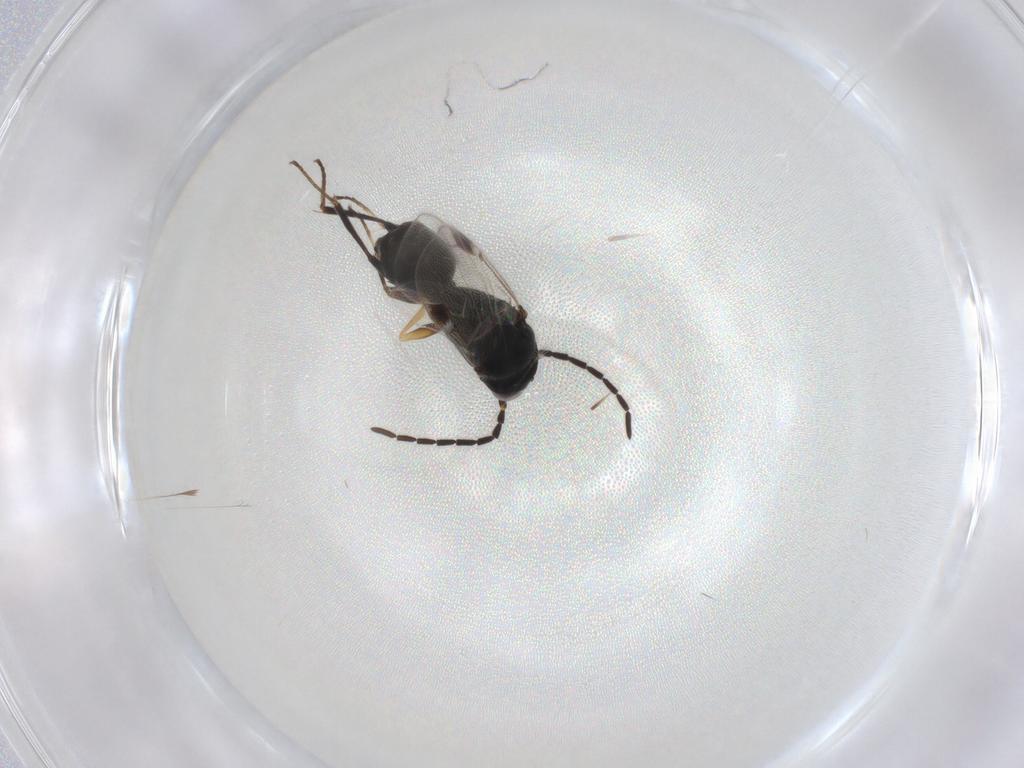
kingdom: Animalia
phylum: Arthropoda
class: Insecta
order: Hymenoptera
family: Dryinidae
